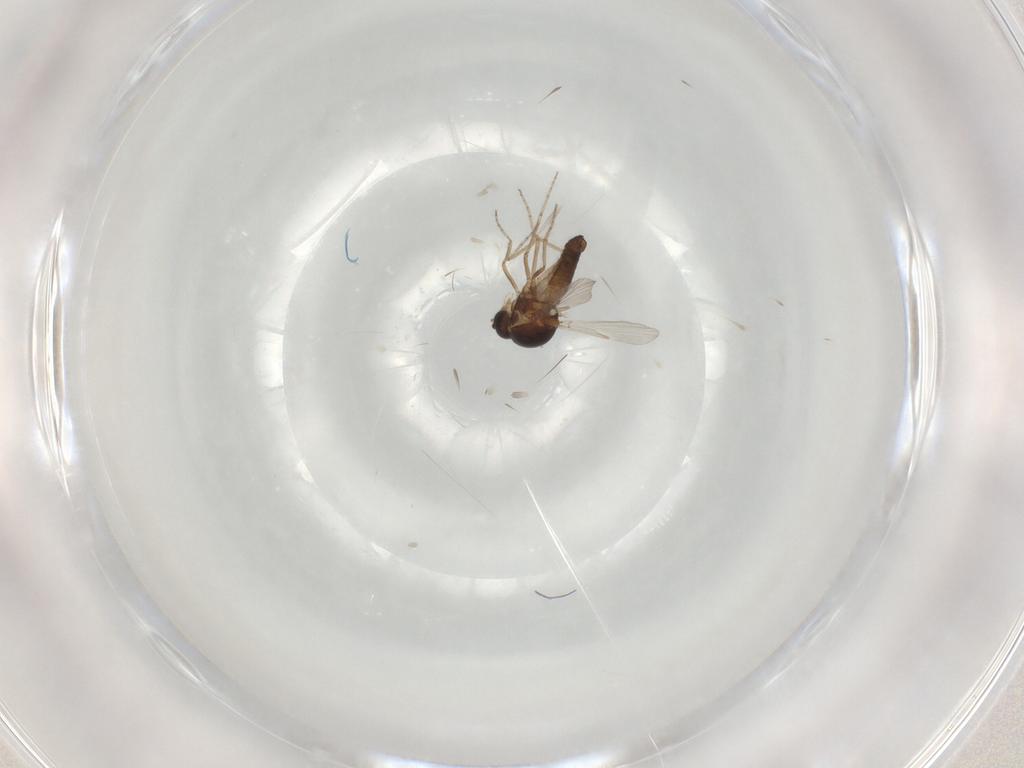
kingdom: Animalia
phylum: Arthropoda
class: Insecta
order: Diptera
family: Ceratopogonidae
